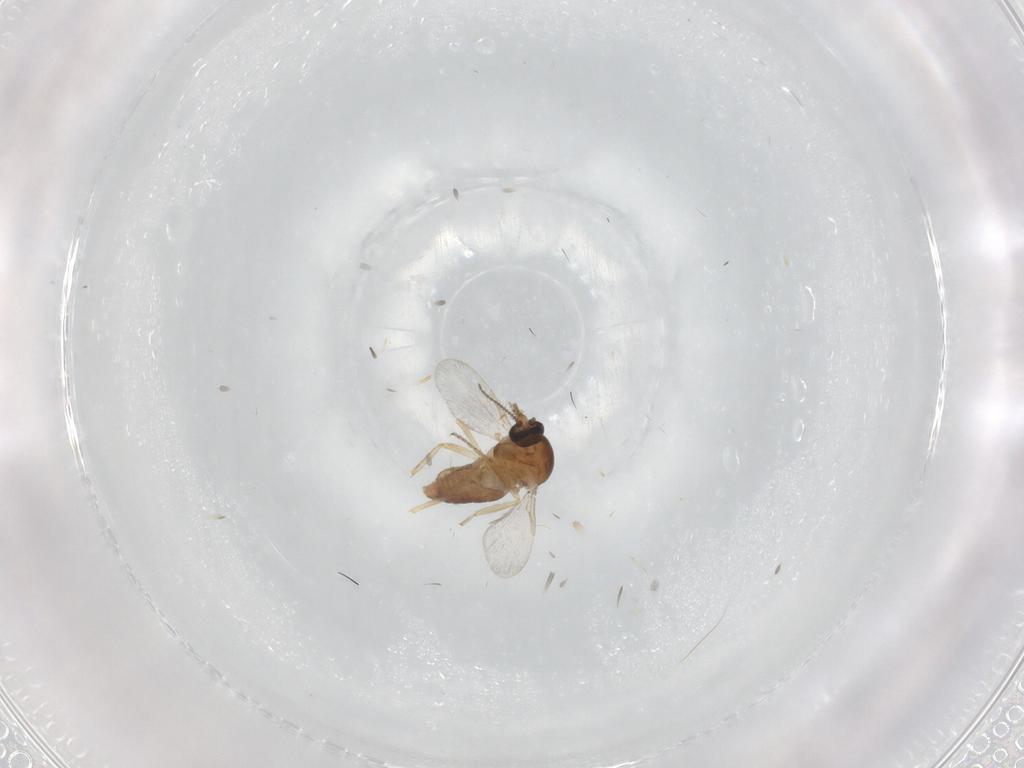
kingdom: Animalia
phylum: Arthropoda
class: Insecta
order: Diptera
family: Ceratopogonidae
